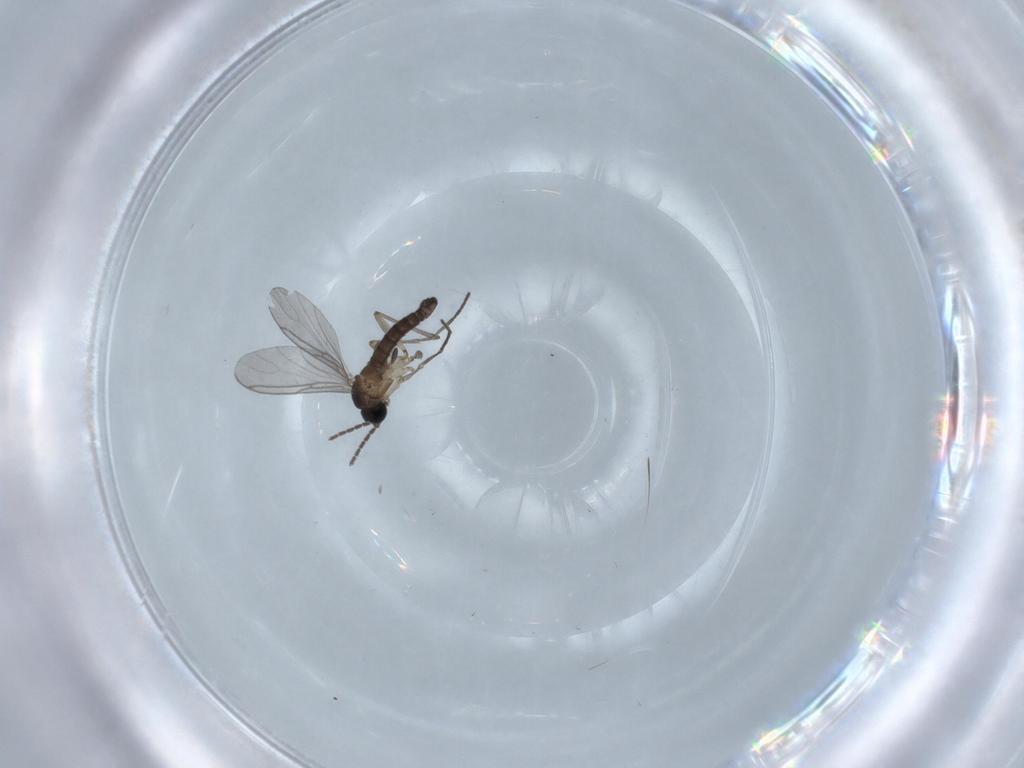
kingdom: Animalia
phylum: Arthropoda
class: Insecta
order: Diptera
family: Sciaridae
